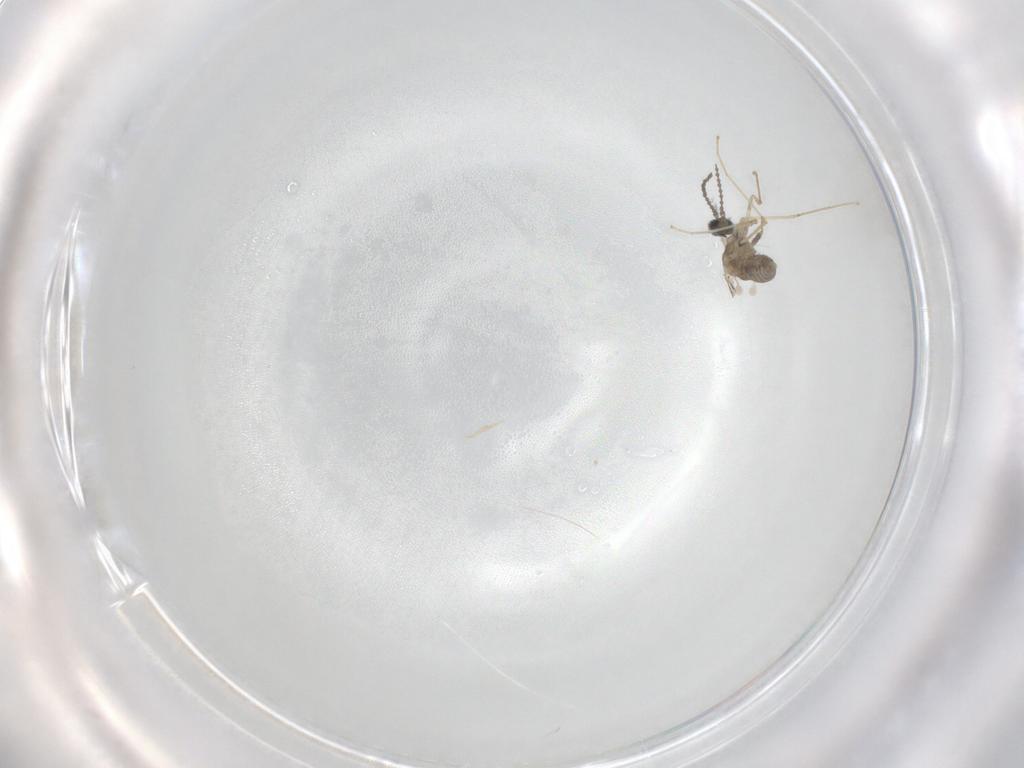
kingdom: Animalia
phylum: Arthropoda
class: Insecta
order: Diptera
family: Cecidomyiidae
